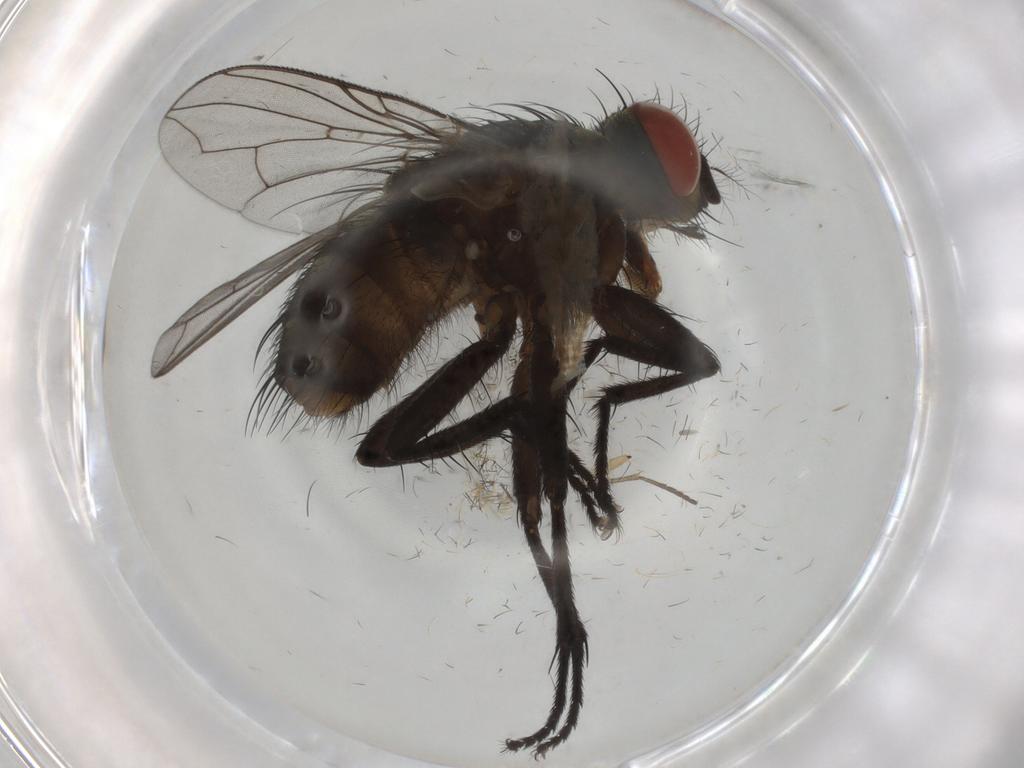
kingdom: Animalia
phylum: Arthropoda
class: Insecta
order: Diptera
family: Sarcophagidae
